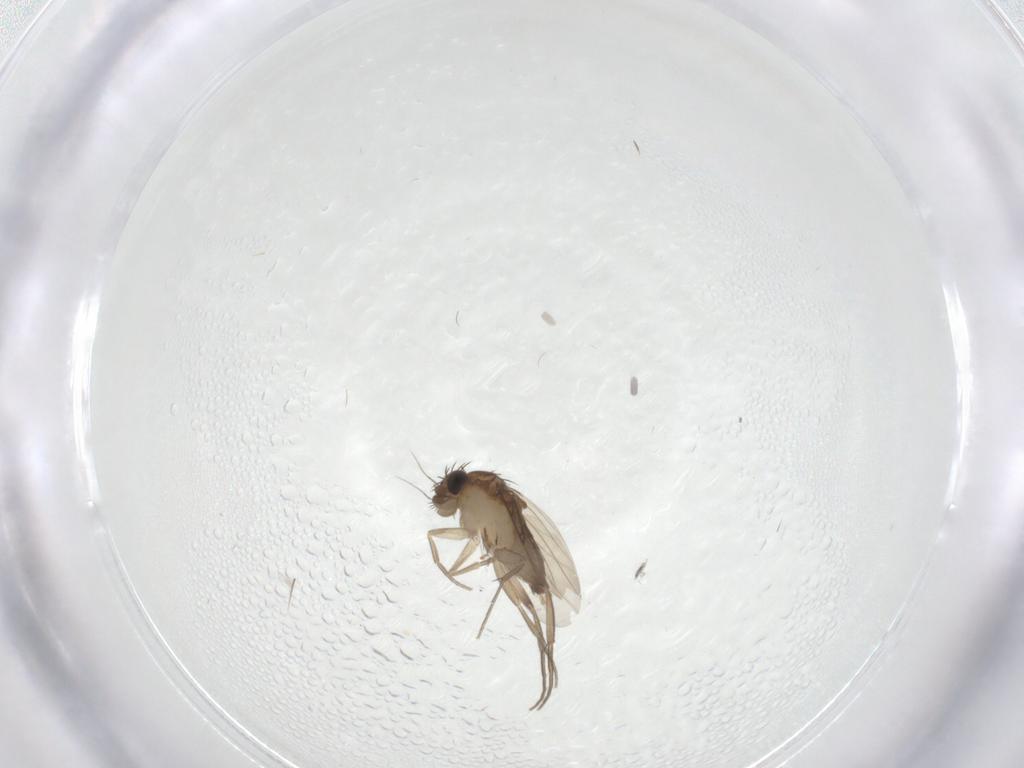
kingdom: Animalia
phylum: Arthropoda
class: Insecta
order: Diptera
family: Phoridae
